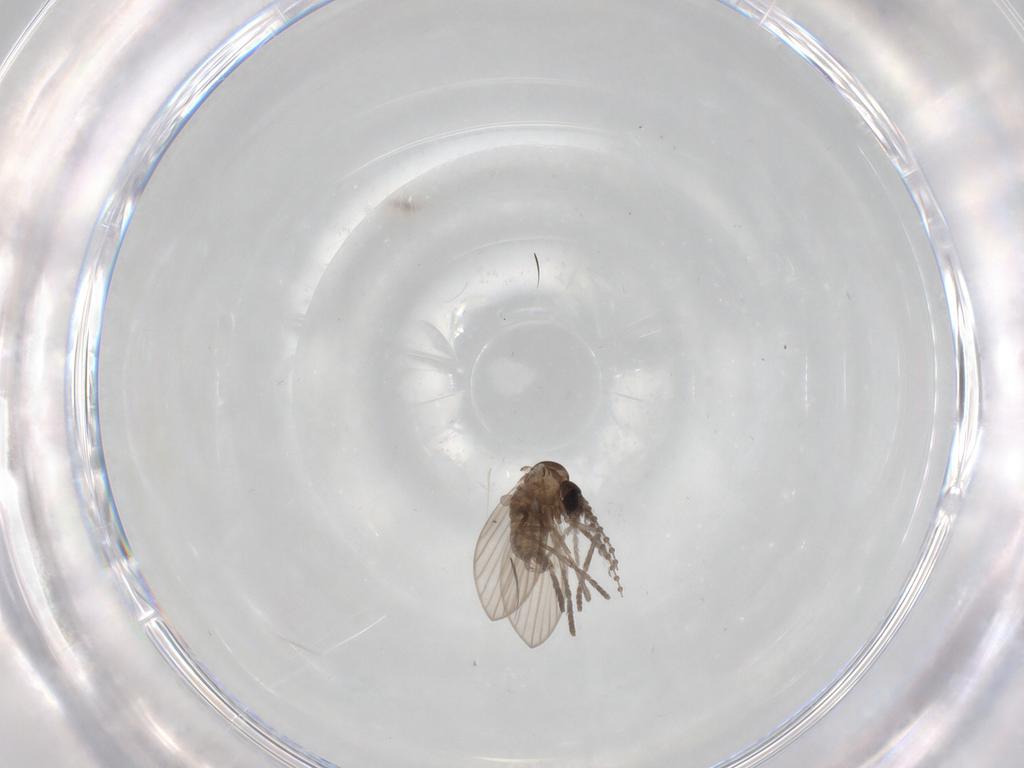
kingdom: Animalia
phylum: Arthropoda
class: Insecta
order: Diptera
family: Psychodidae
